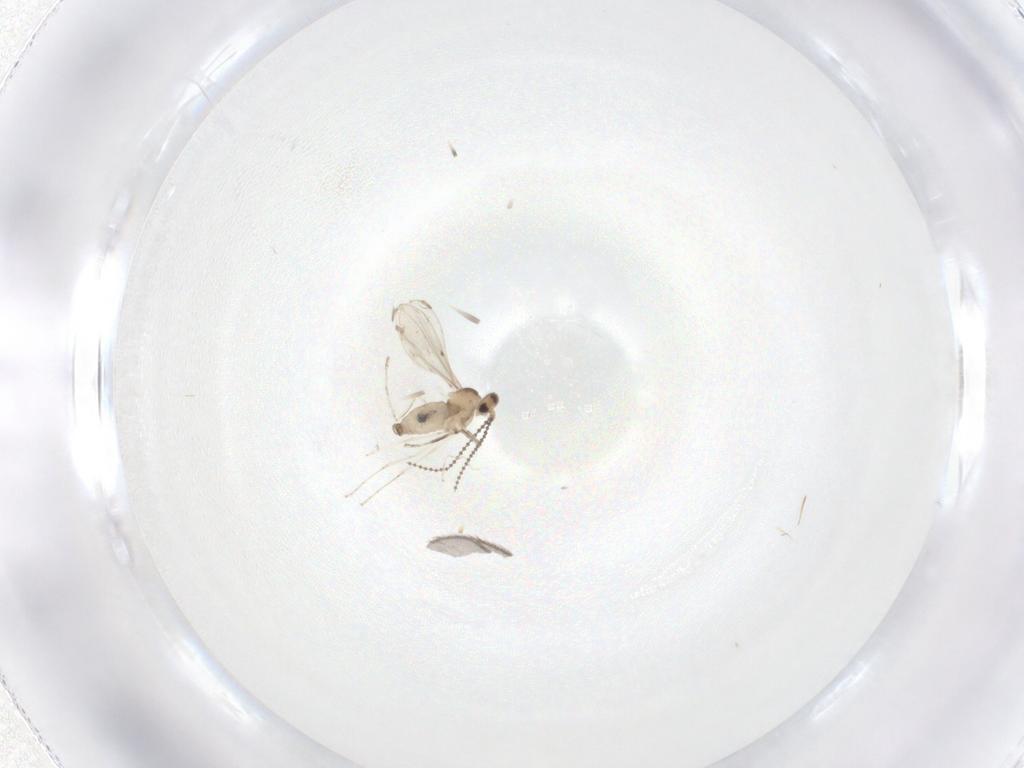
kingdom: Animalia
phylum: Arthropoda
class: Insecta
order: Diptera
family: Cecidomyiidae
